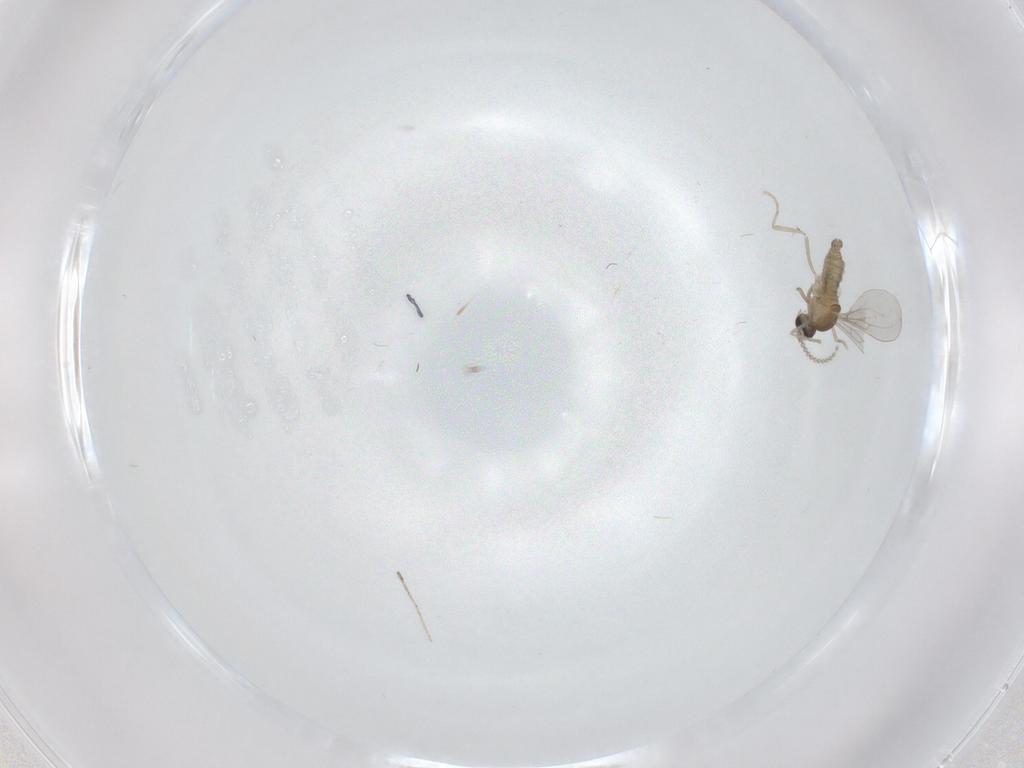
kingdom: Animalia
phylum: Arthropoda
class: Insecta
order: Diptera
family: Cecidomyiidae
